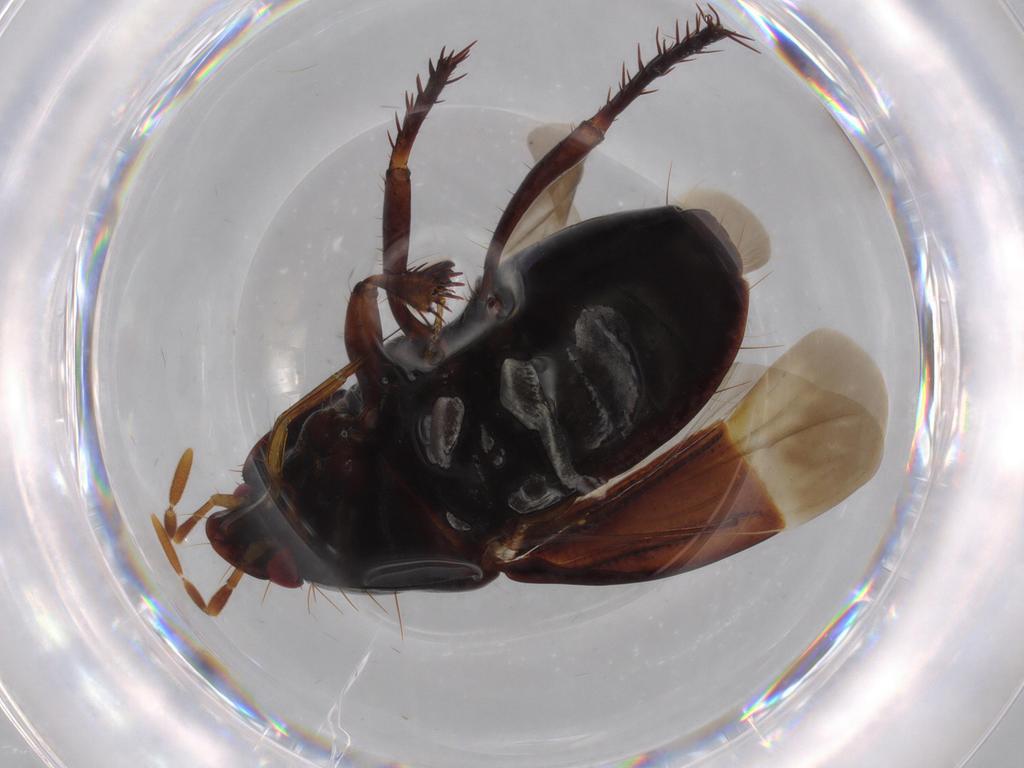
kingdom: Animalia
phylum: Arthropoda
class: Insecta
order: Hemiptera
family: Cydnidae
